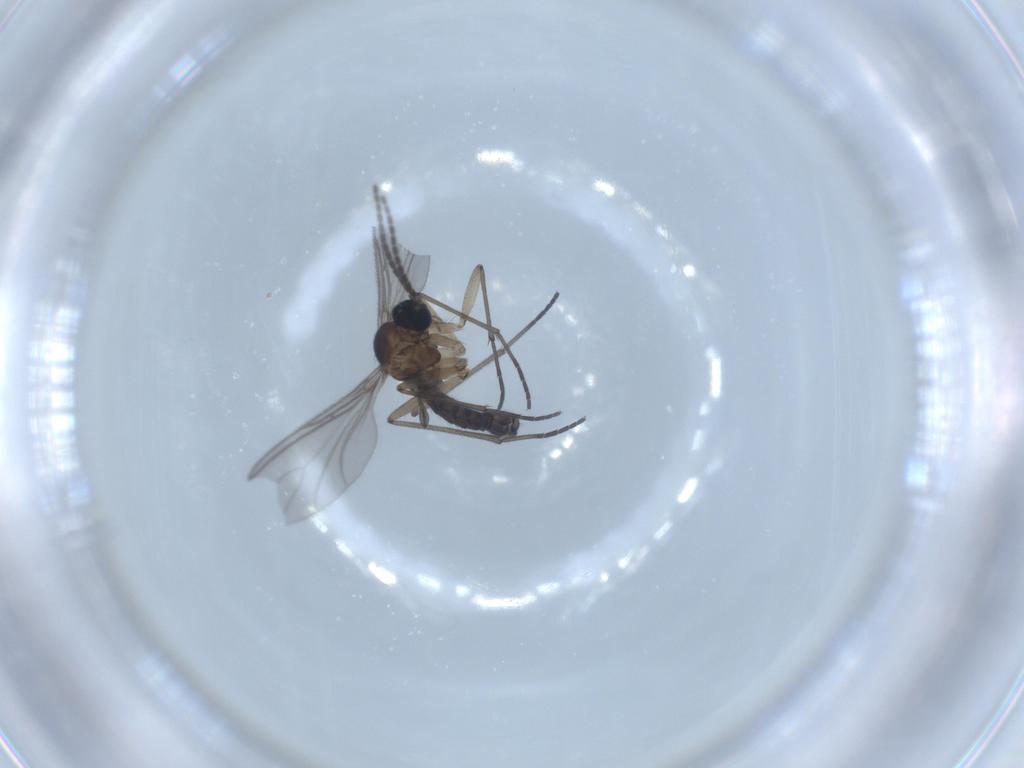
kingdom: Animalia
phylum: Arthropoda
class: Insecta
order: Diptera
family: Sciaridae
